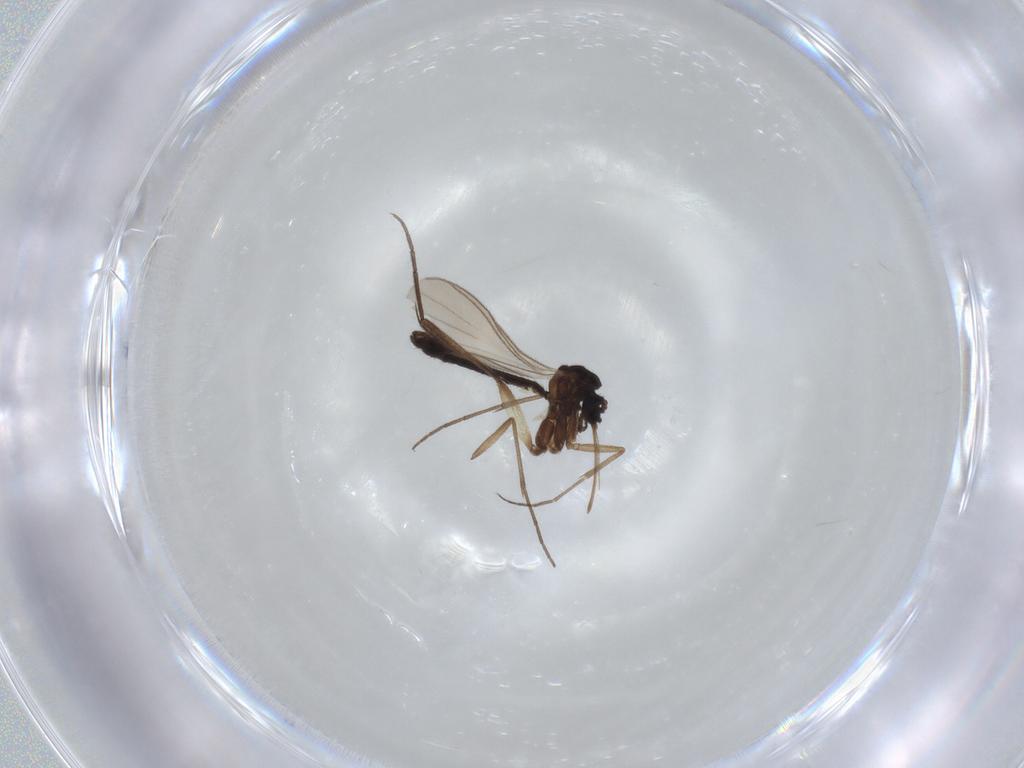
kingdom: Animalia
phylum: Arthropoda
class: Insecta
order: Diptera
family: Keroplatidae
